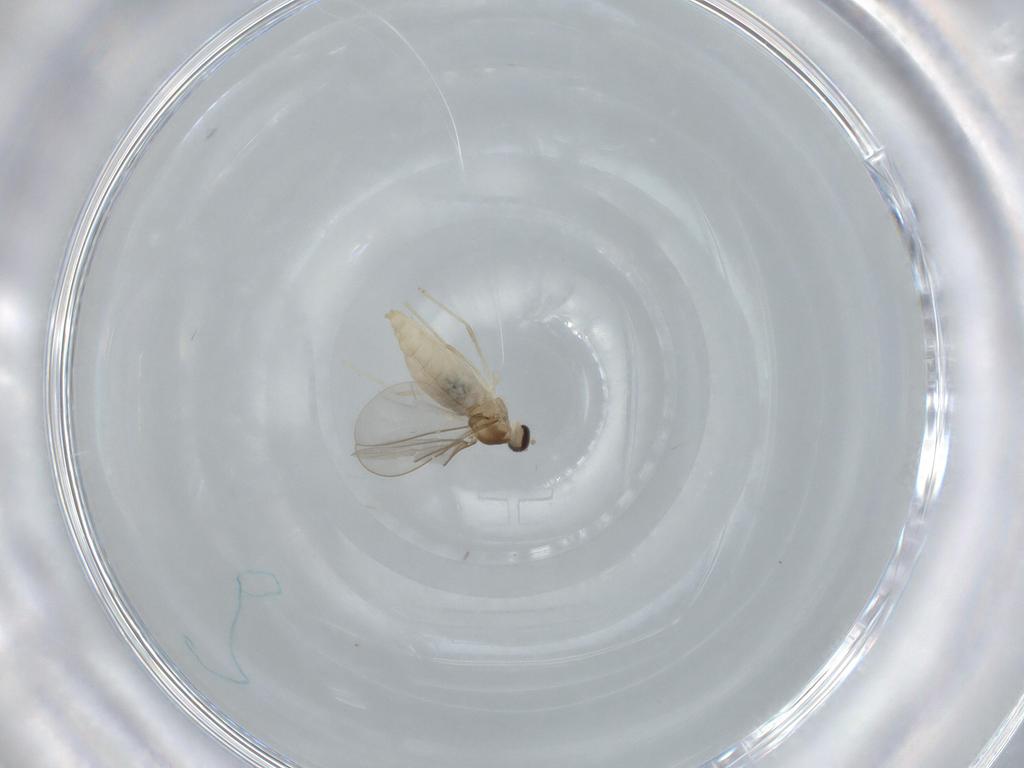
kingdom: Animalia
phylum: Arthropoda
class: Insecta
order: Diptera
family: Cecidomyiidae
